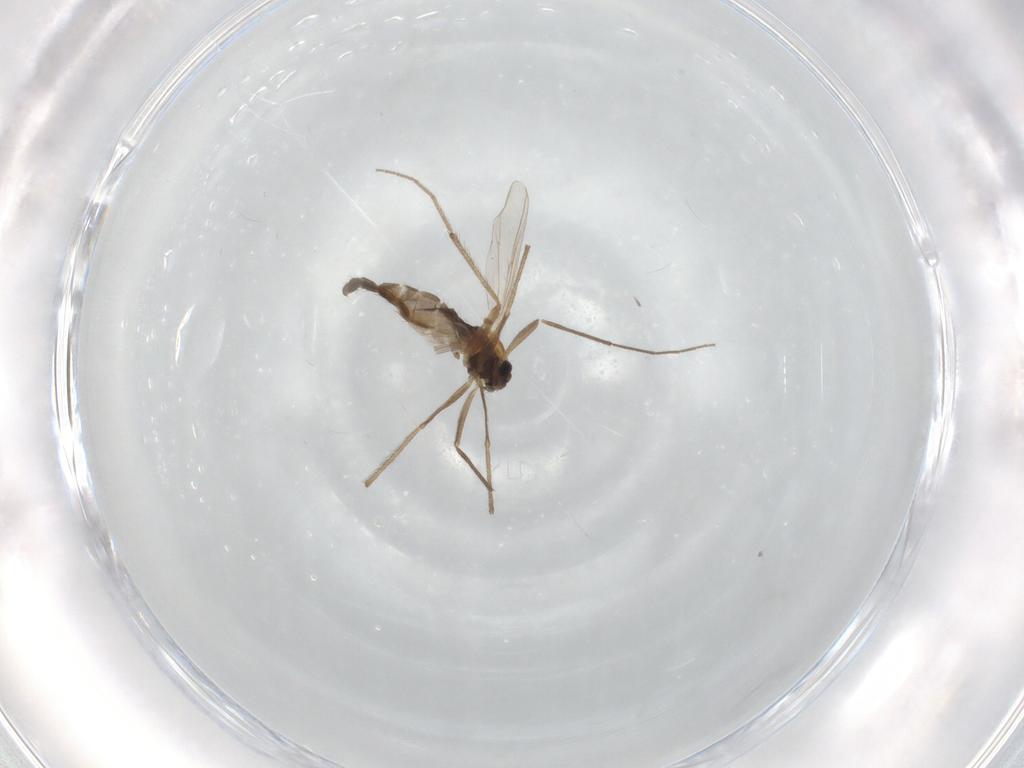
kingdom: Animalia
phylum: Arthropoda
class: Insecta
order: Diptera
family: Chironomidae
